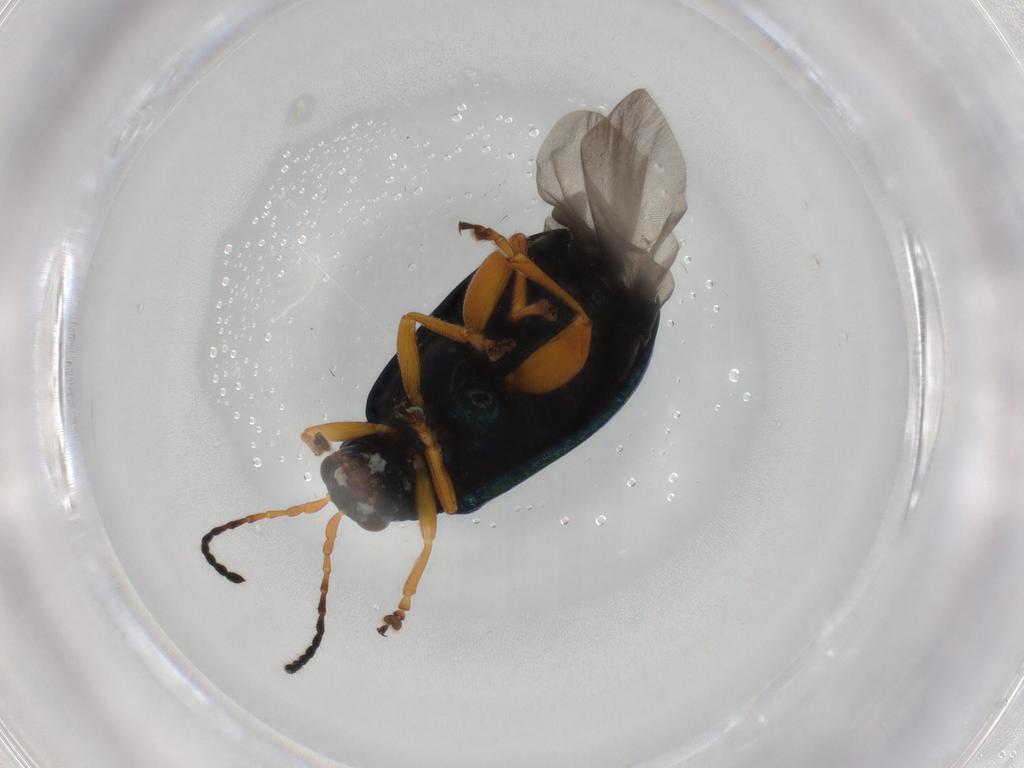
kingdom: Animalia
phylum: Arthropoda
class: Insecta
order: Coleoptera
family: Chrysomelidae
